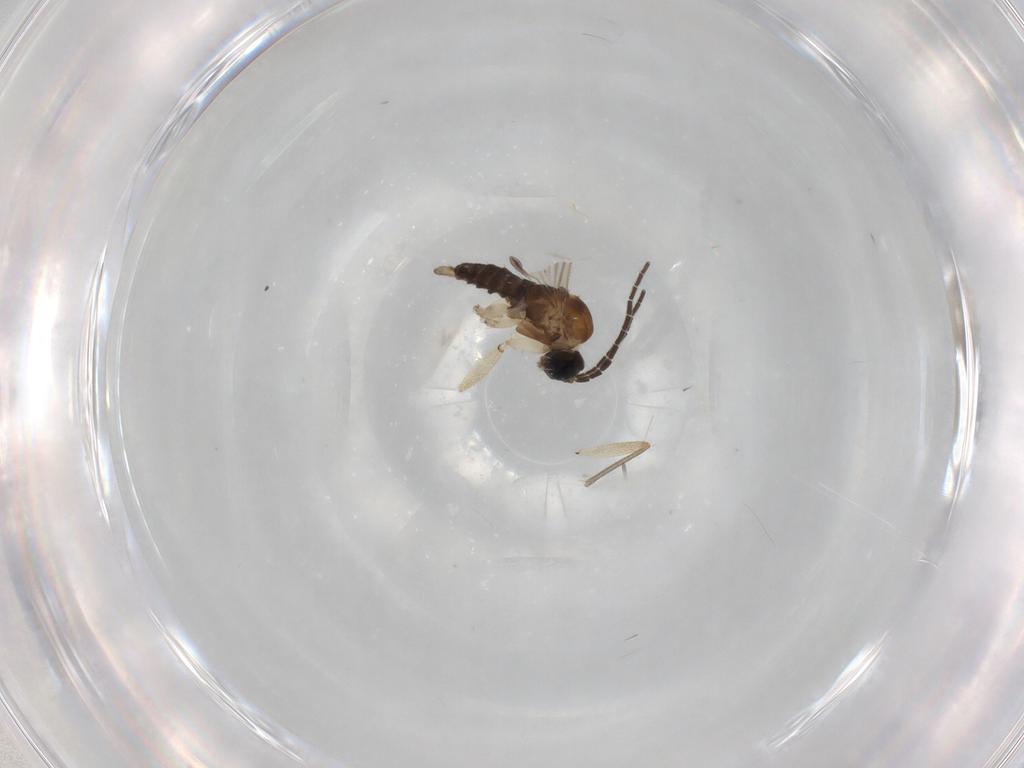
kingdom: Animalia
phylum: Arthropoda
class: Insecta
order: Diptera
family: Sciaridae
